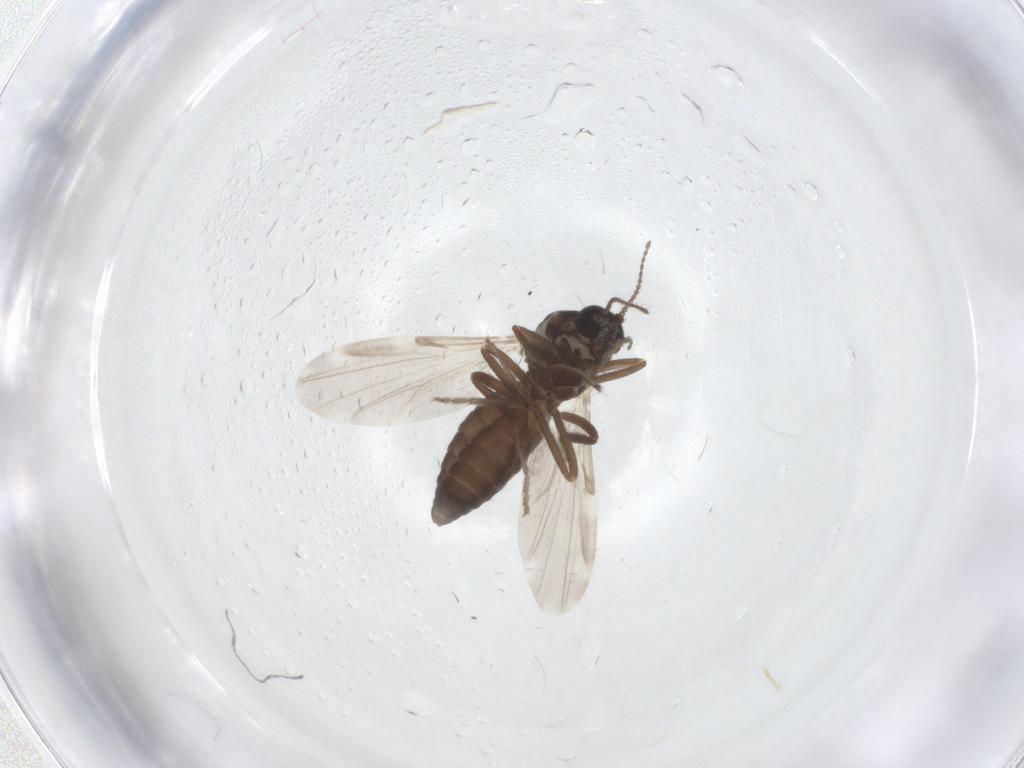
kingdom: Animalia
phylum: Arthropoda
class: Insecta
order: Diptera
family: Ceratopogonidae
